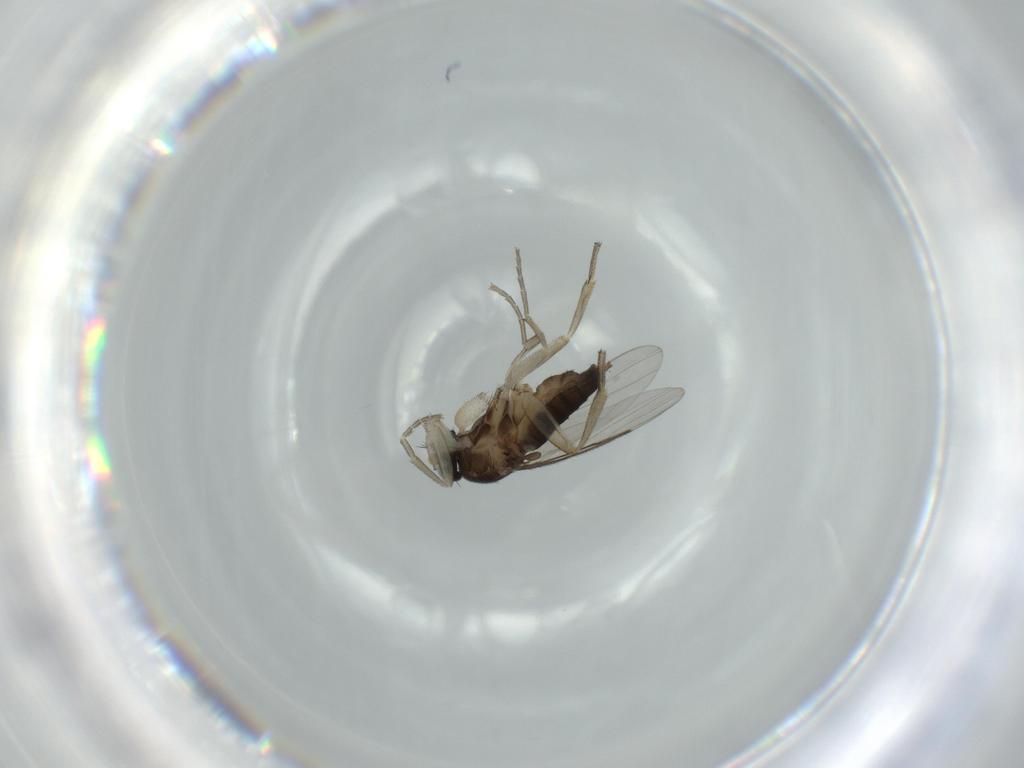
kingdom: Animalia
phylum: Arthropoda
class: Insecta
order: Diptera
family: Phoridae
